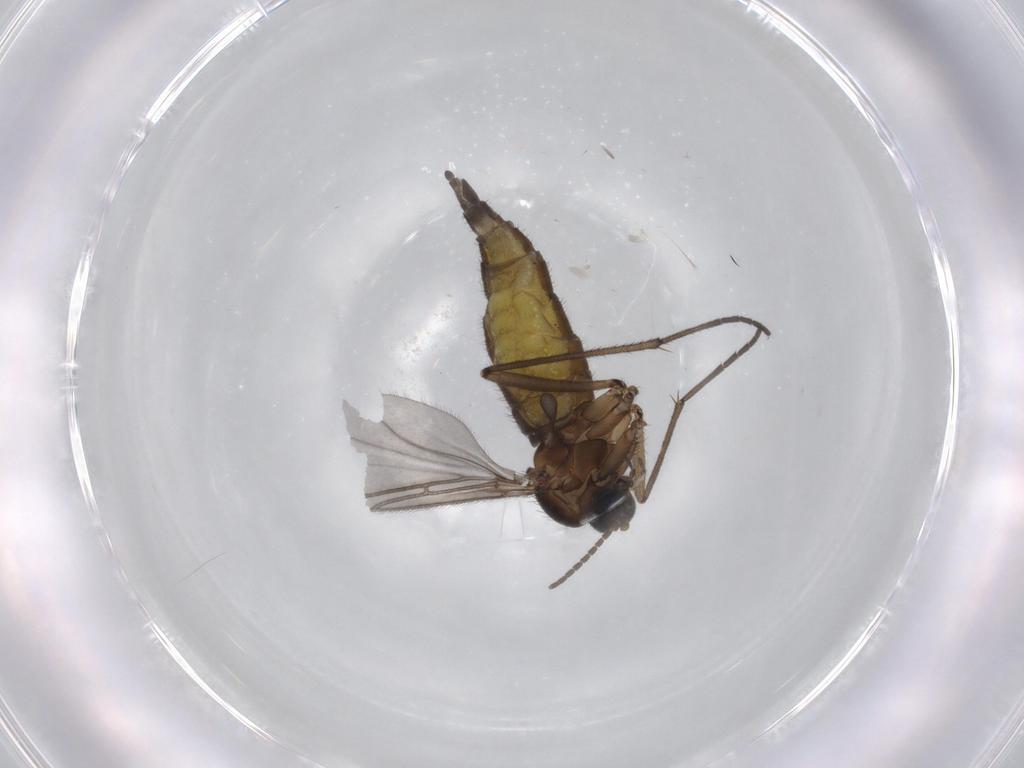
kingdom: Animalia
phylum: Arthropoda
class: Insecta
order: Diptera
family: Sciaridae
